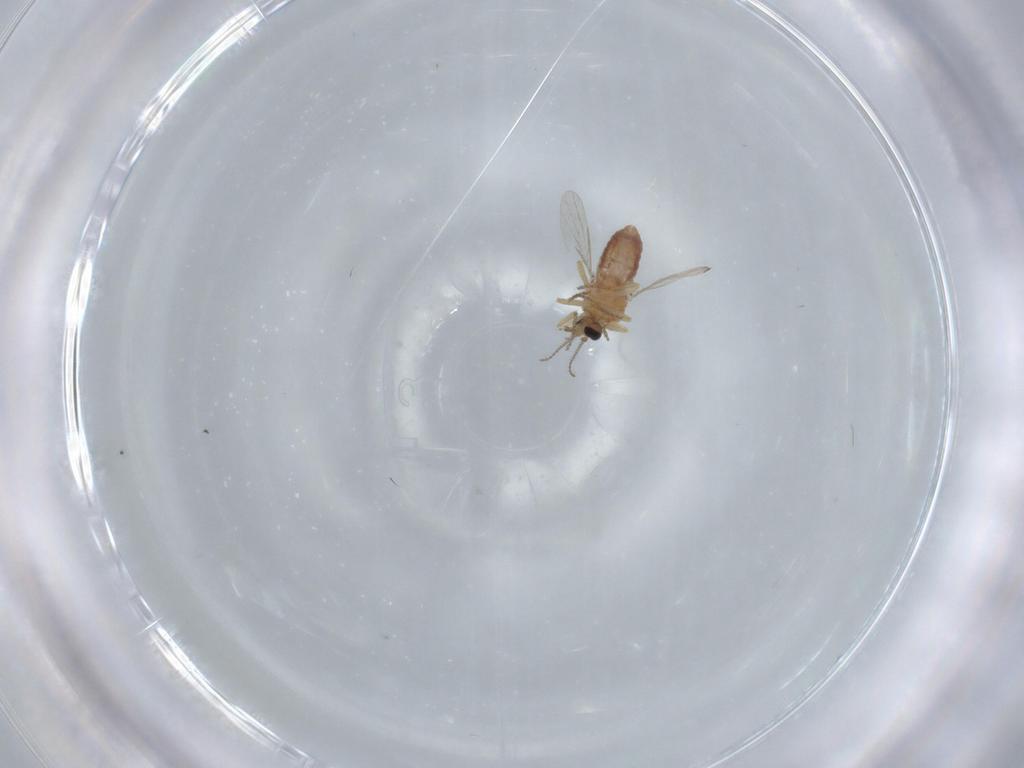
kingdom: Animalia
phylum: Arthropoda
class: Insecta
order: Diptera
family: Ceratopogonidae
